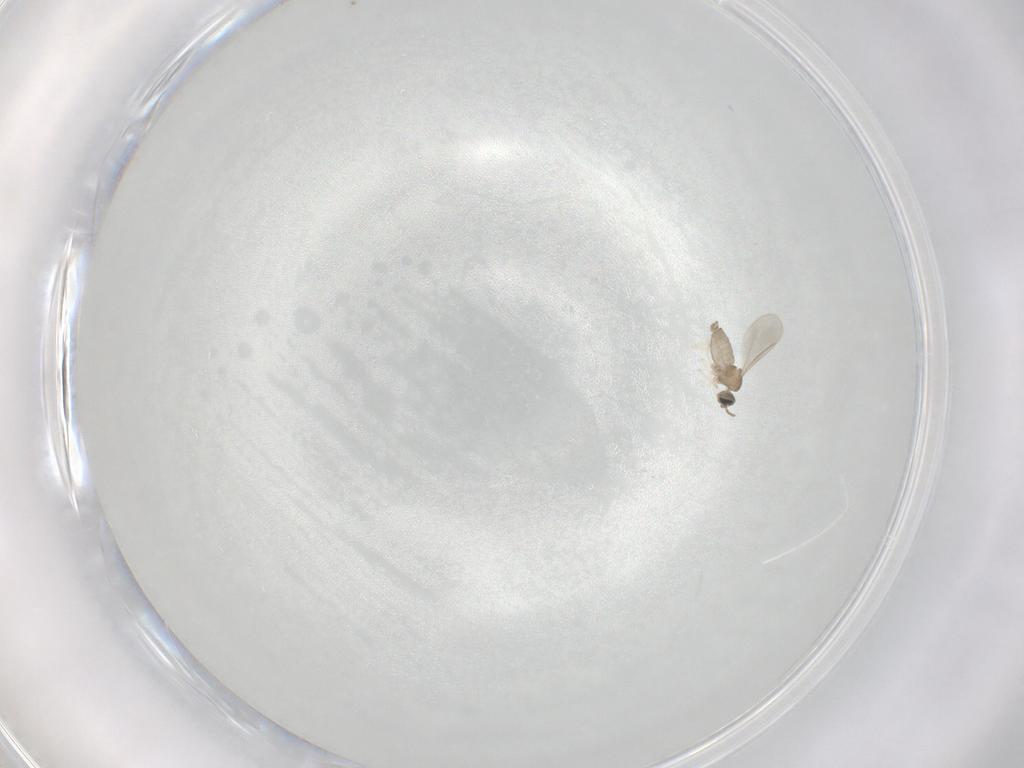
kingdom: Animalia
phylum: Arthropoda
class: Insecta
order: Diptera
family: Cecidomyiidae
